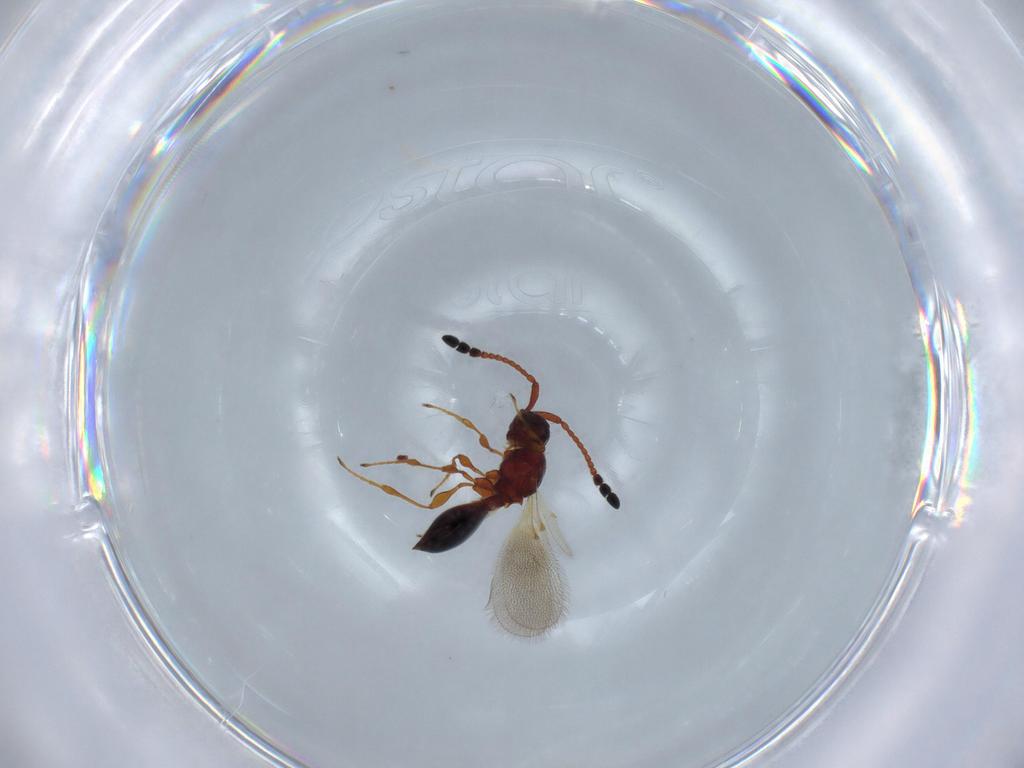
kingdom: Animalia
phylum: Arthropoda
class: Insecta
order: Hymenoptera
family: Diapriidae
